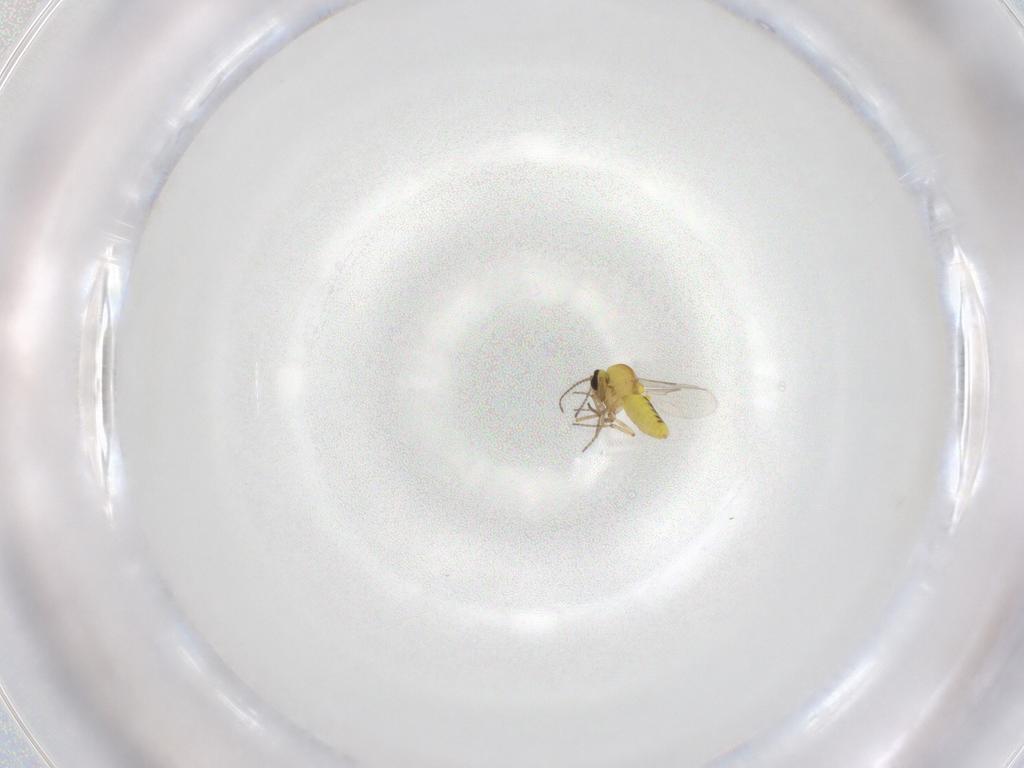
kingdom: Animalia
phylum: Arthropoda
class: Insecta
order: Diptera
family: Ceratopogonidae
